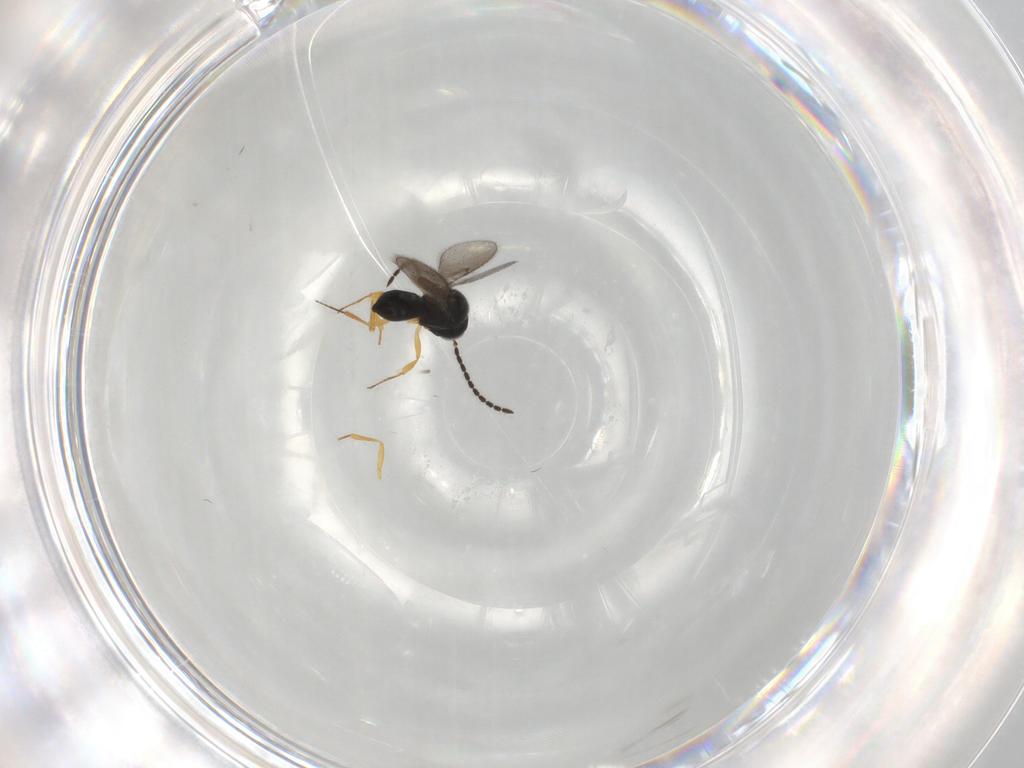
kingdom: Animalia
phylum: Arthropoda
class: Insecta
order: Hymenoptera
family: Scelionidae
